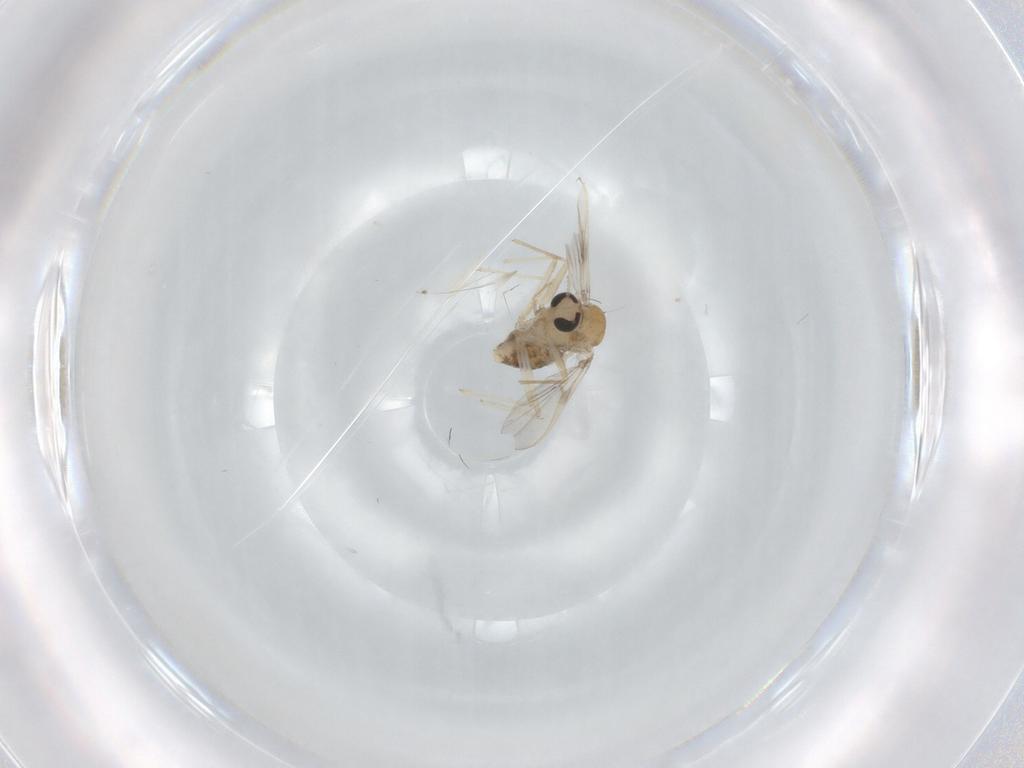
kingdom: Animalia
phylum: Arthropoda
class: Insecta
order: Diptera
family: Chironomidae
